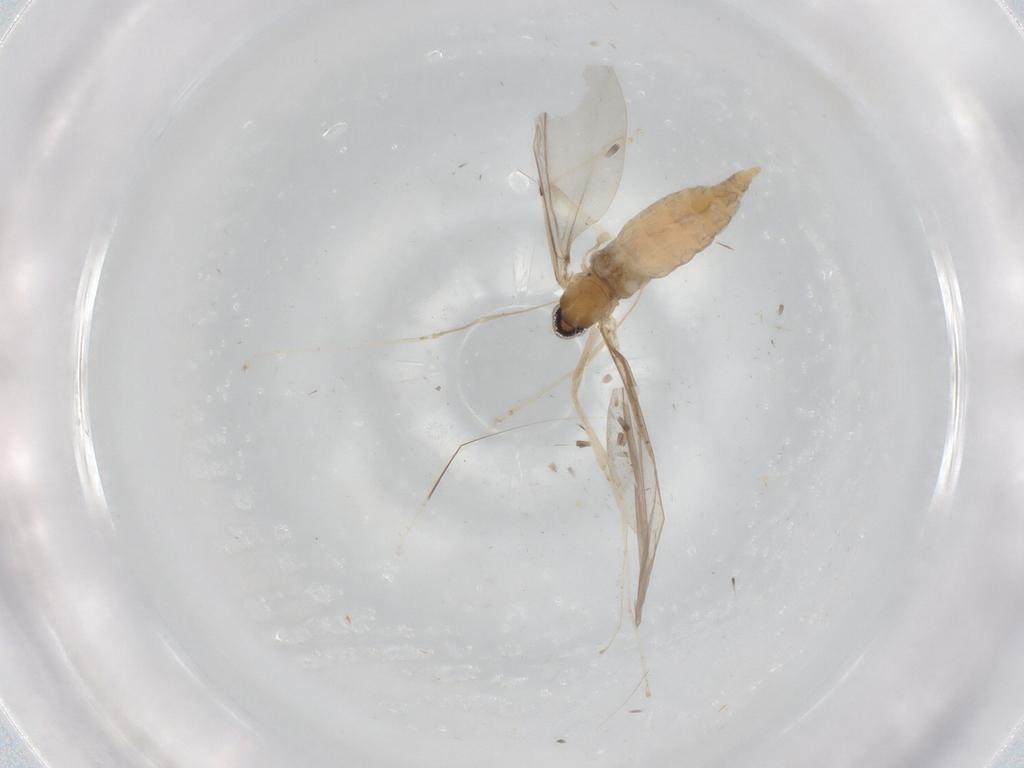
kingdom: Animalia
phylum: Arthropoda
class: Insecta
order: Diptera
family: Cecidomyiidae
